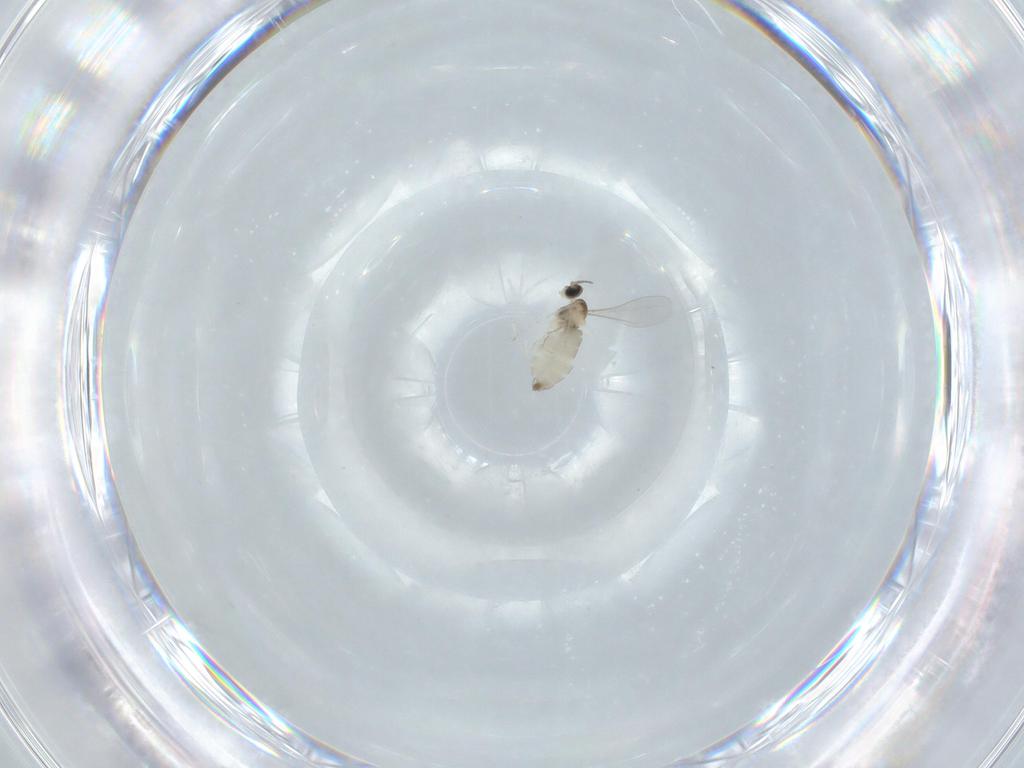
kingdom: Animalia
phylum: Arthropoda
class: Insecta
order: Diptera
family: Cecidomyiidae
